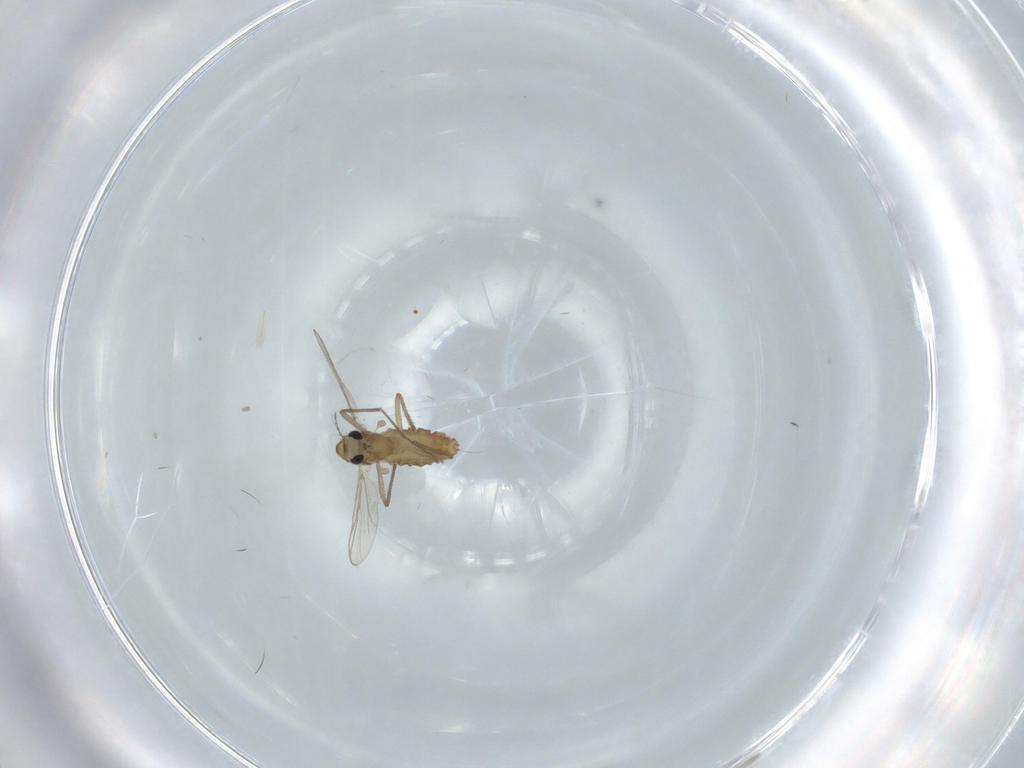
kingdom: Animalia
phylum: Arthropoda
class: Insecta
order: Diptera
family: Chironomidae
